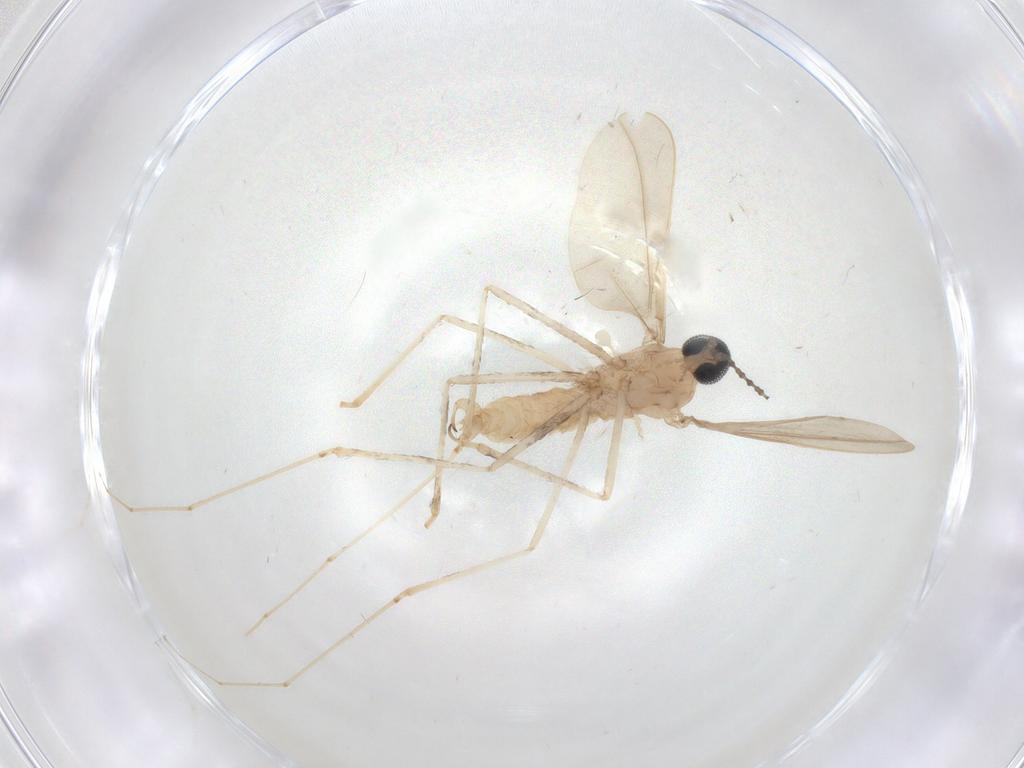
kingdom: Animalia
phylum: Arthropoda
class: Insecta
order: Diptera
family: Cecidomyiidae
